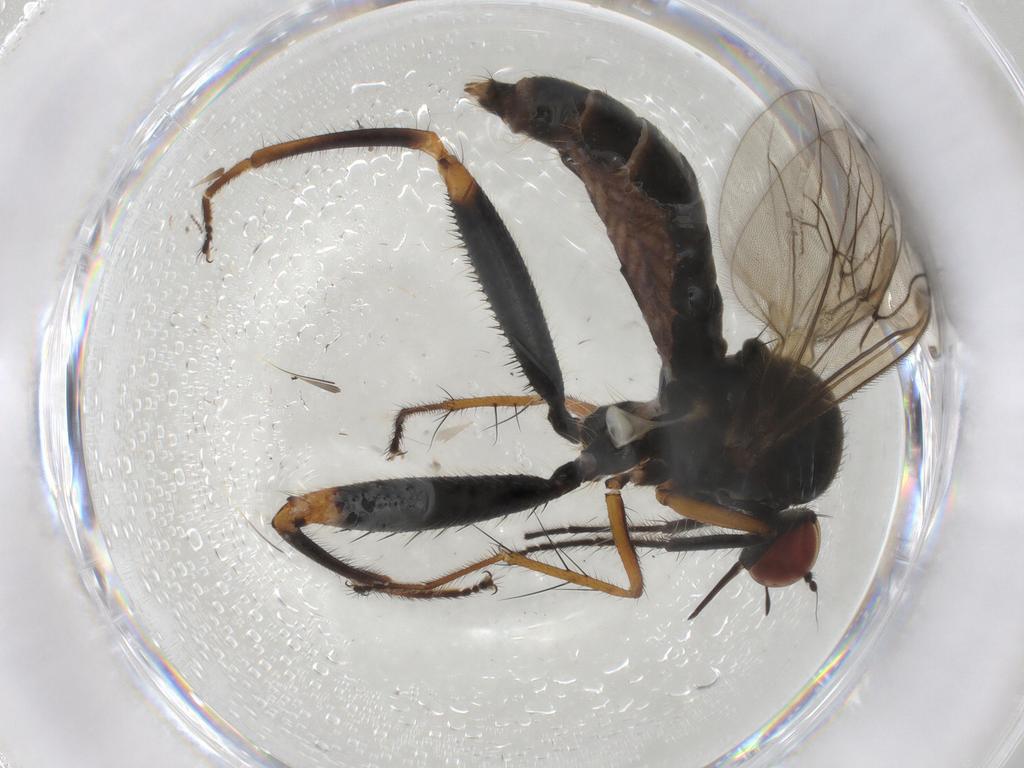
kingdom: Animalia
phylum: Arthropoda
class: Insecta
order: Diptera
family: Hybotidae
